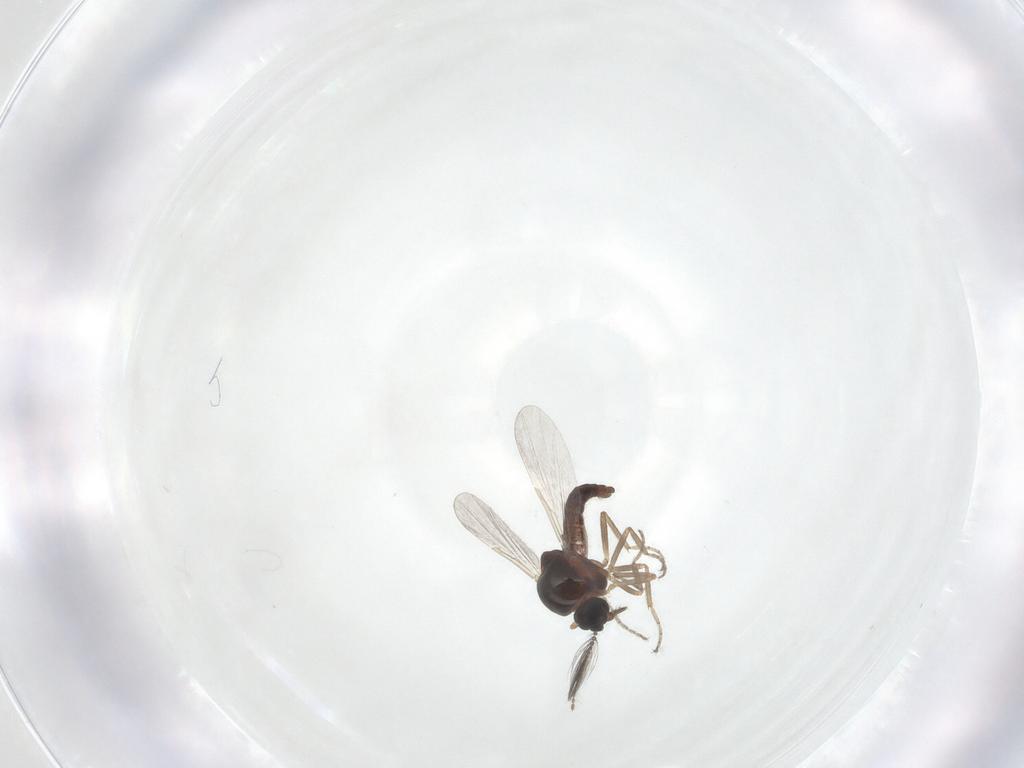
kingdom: Animalia
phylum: Arthropoda
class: Insecta
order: Diptera
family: Ceratopogonidae
